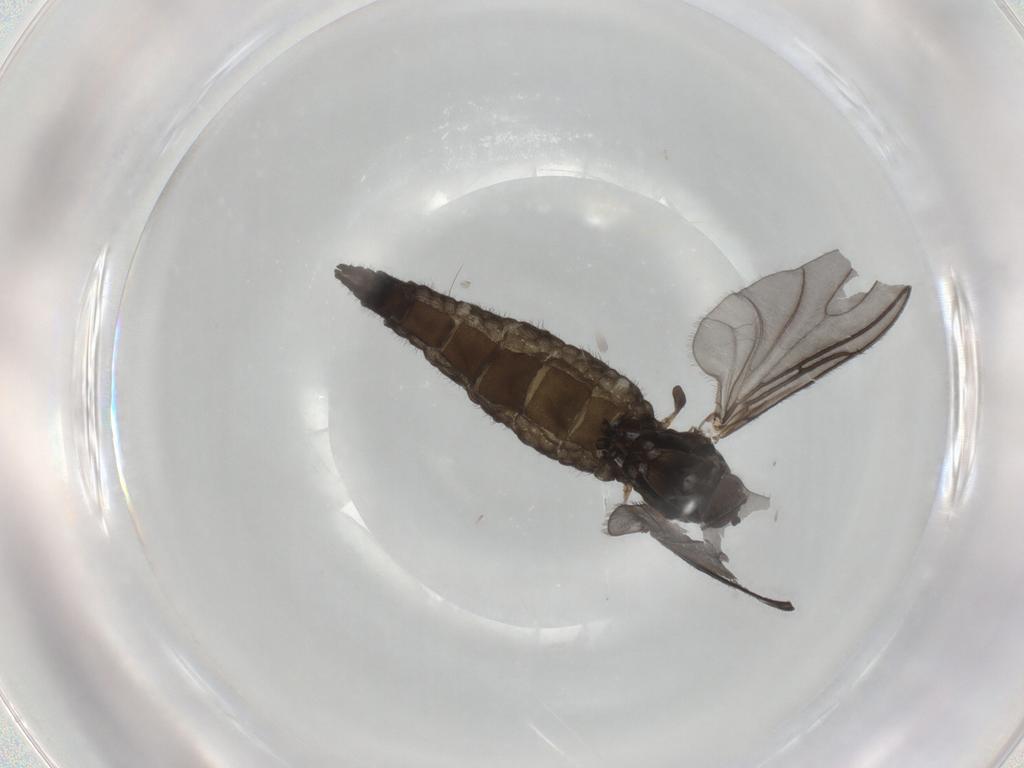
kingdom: Animalia
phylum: Arthropoda
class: Insecta
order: Diptera
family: Sciaridae
